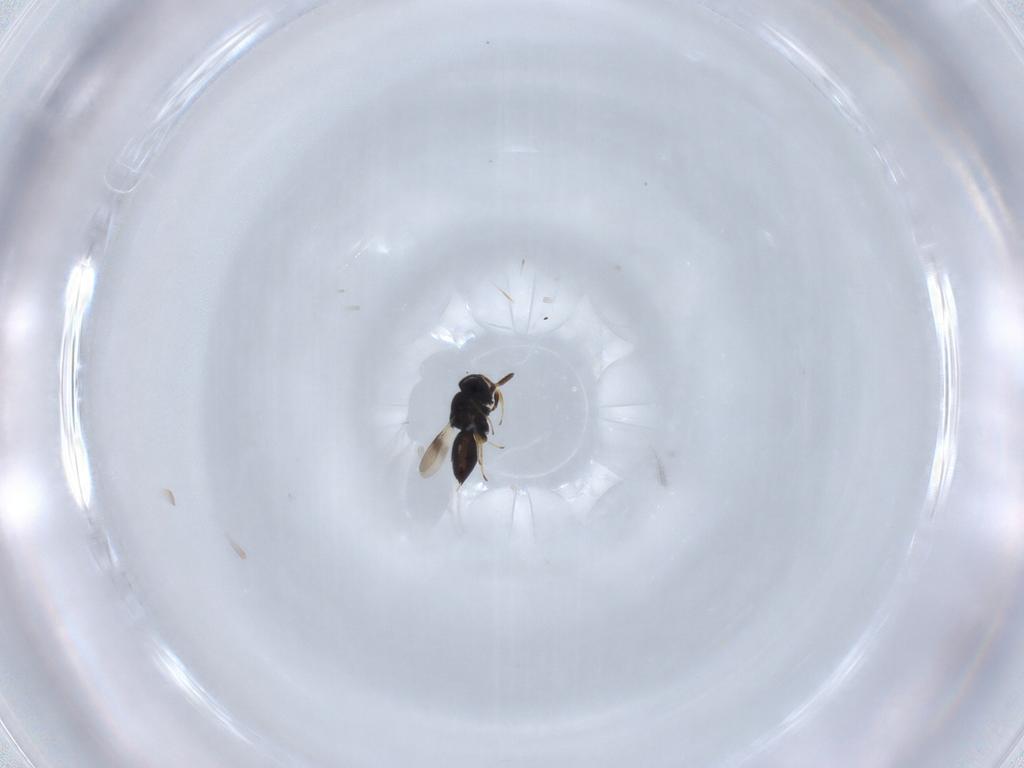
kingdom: Animalia
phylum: Arthropoda
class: Insecta
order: Hymenoptera
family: Scelionidae
